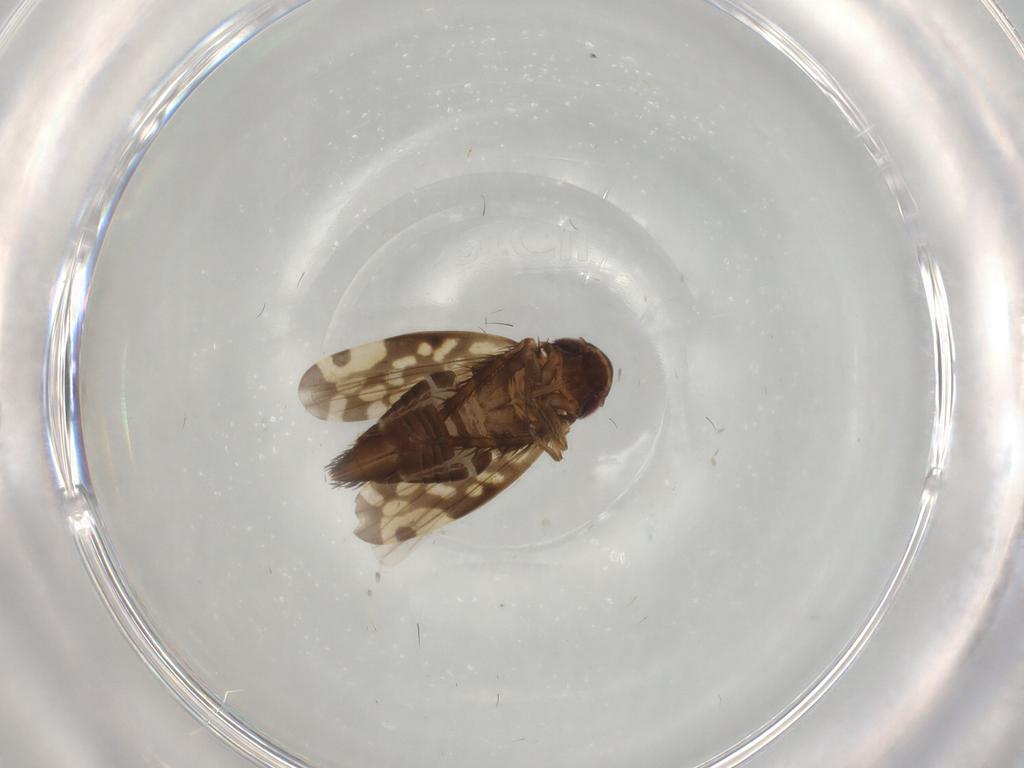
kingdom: Animalia
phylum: Arthropoda
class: Insecta
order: Hemiptera
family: Cicadellidae
